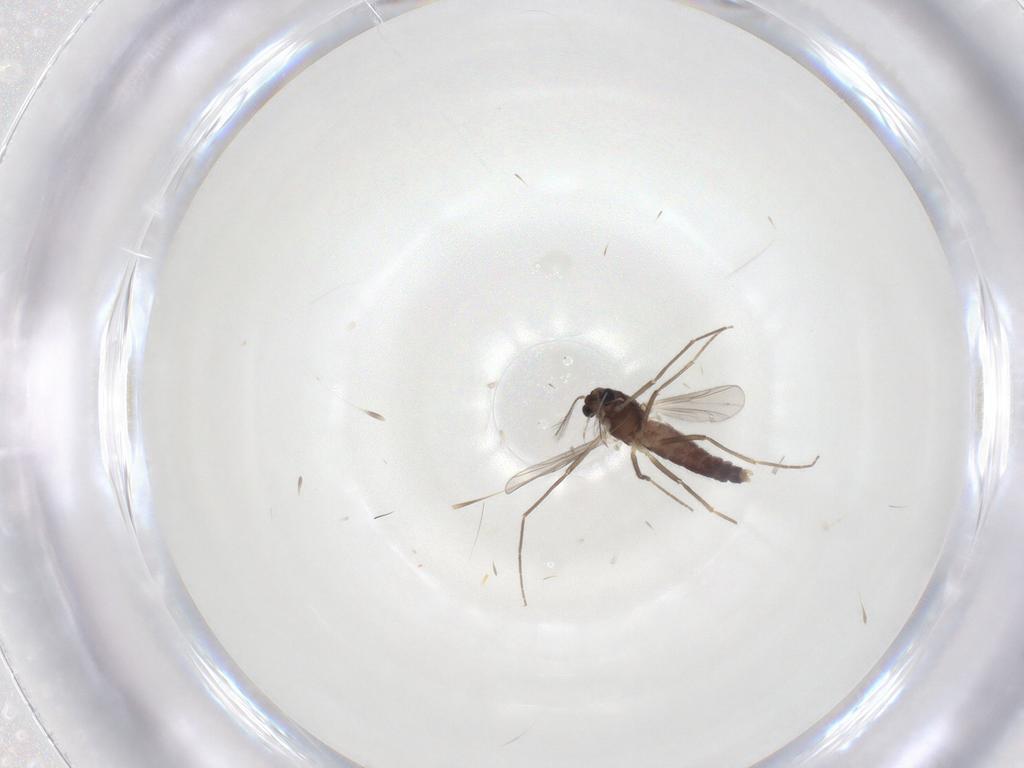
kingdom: Animalia
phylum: Arthropoda
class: Insecta
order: Diptera
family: Chironomidae
